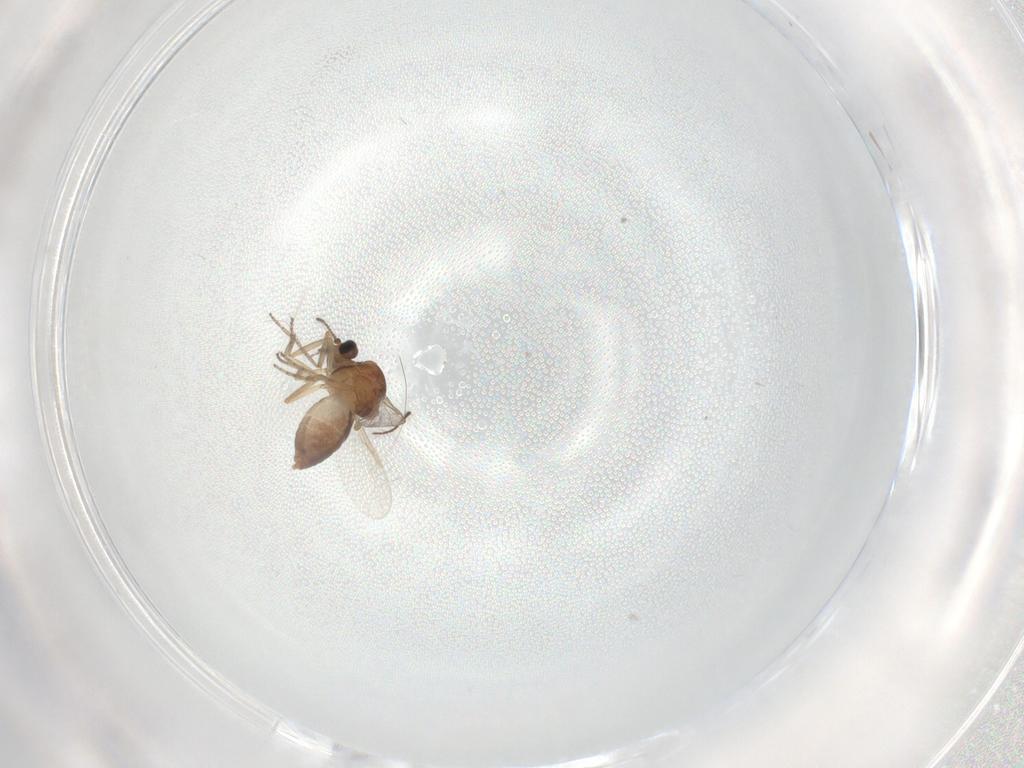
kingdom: Animalia
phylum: Arthropoda
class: Insecta
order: Diptera
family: Ceratopogonidae
